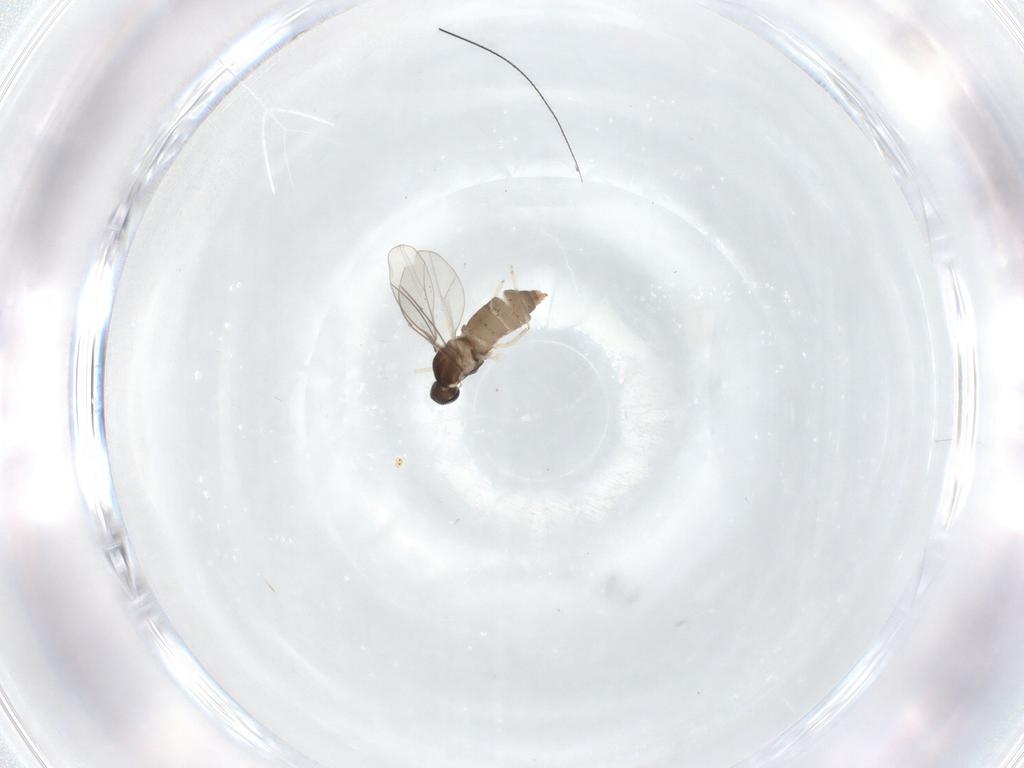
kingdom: Animalia
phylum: Arthropoda
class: Insecta
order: Diptera
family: Cecidomyiidae
